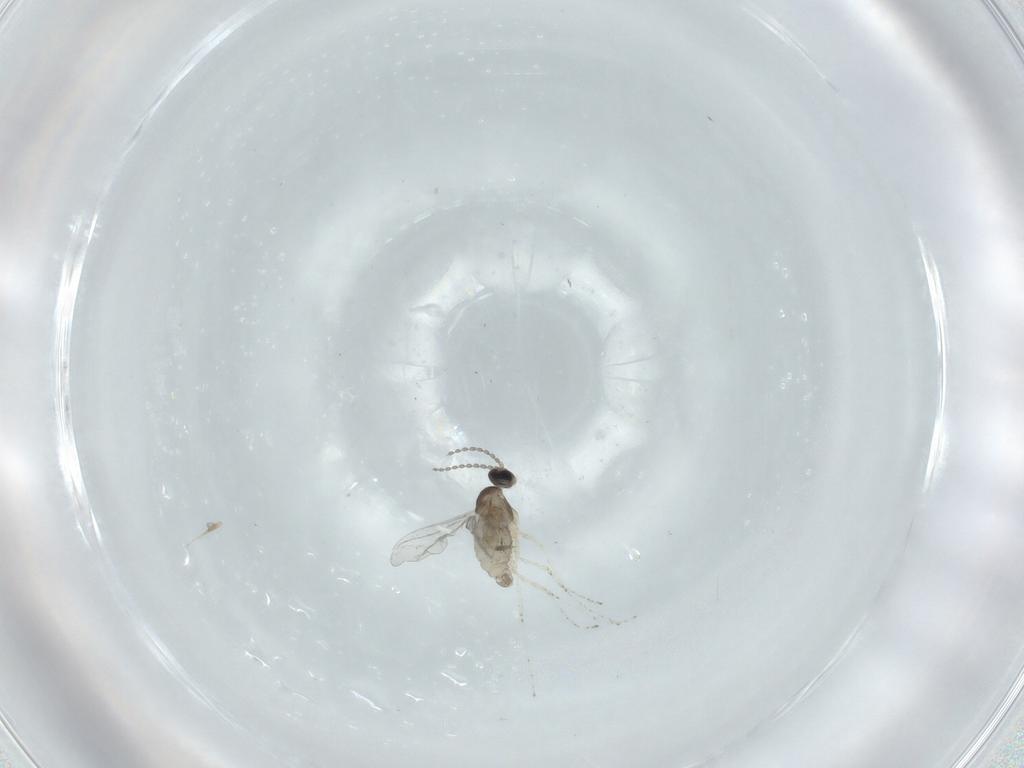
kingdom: Animalia
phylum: Arthropoda
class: Insecta
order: Diptera
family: Cecidomyiidae
